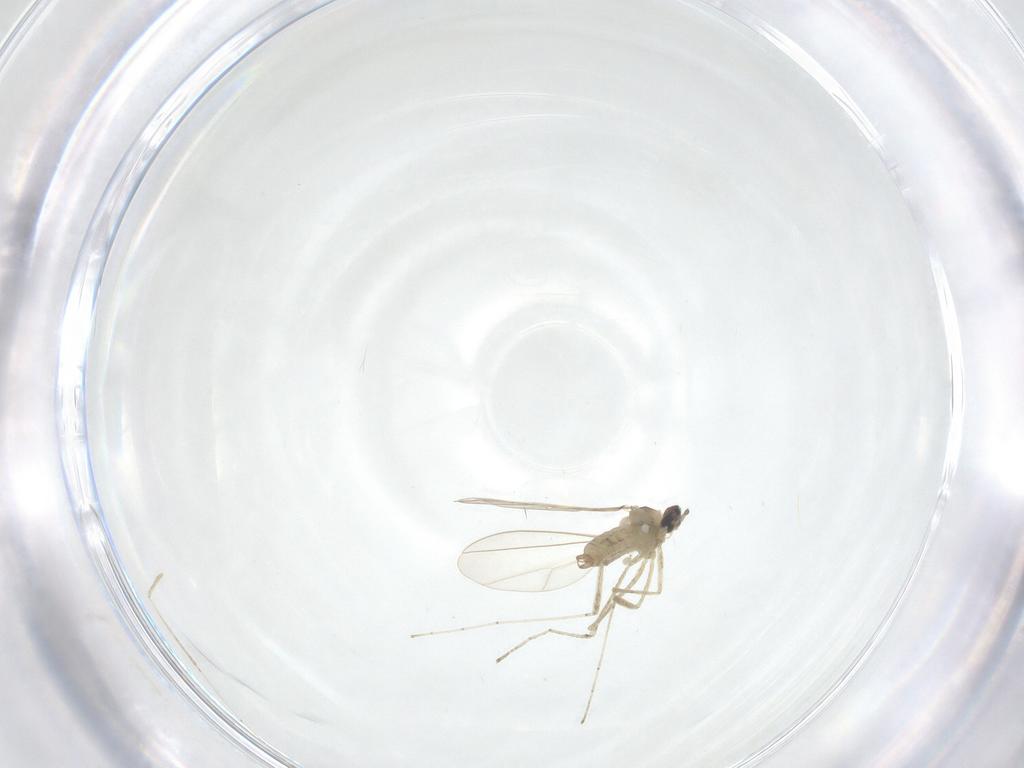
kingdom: Animalia
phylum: Arthropoda
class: Insecta
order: Diptera
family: Cecidomyiidae
